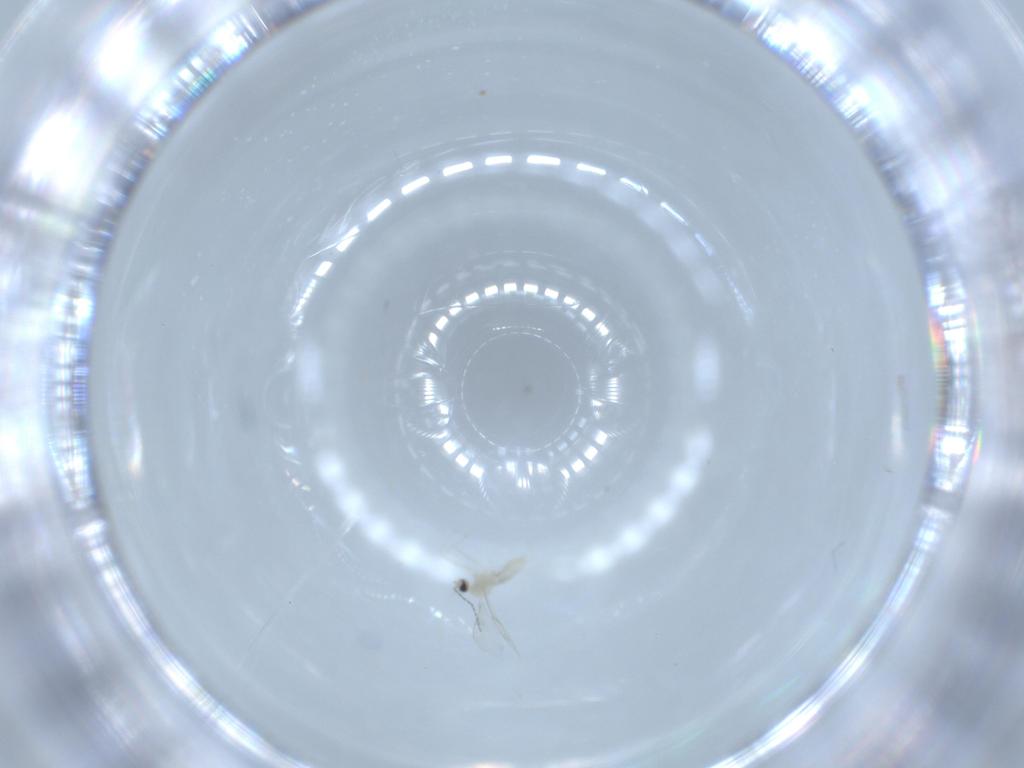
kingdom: Animalia
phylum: Arthropoda
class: Insecta
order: Diptera
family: Cecidomyiidae
